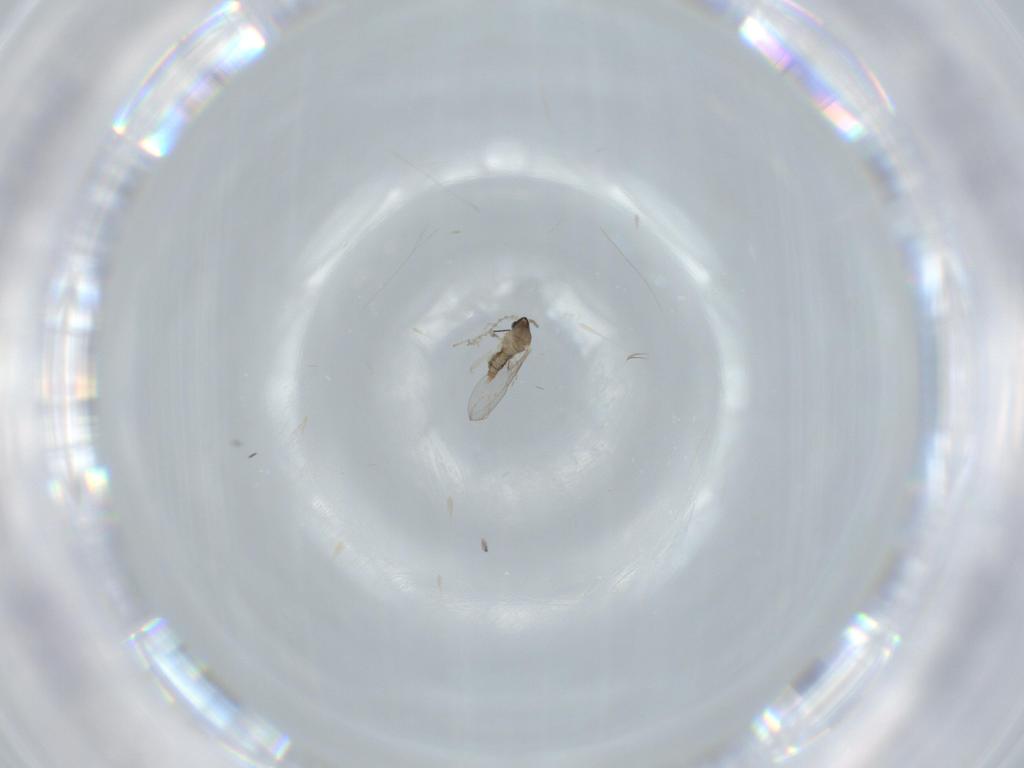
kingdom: Animalia
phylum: Arthropoda
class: Insecta
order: Diptera
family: Cecidomyiidae
